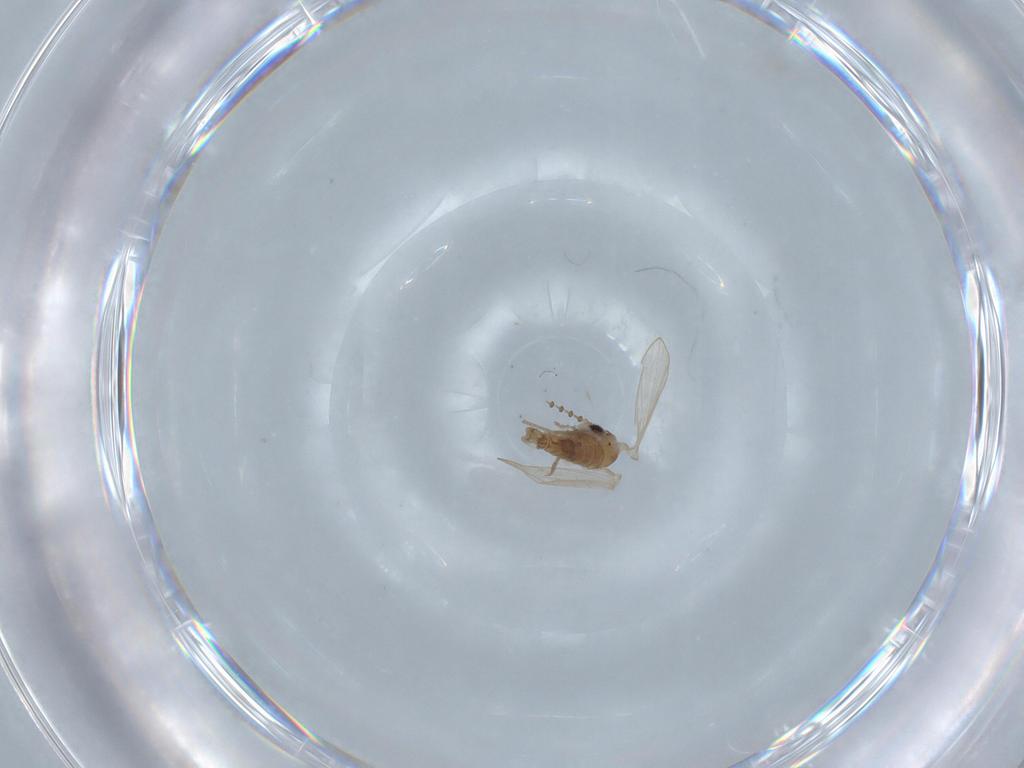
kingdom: Animalia
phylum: Arthropoda
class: Insecta
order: Diptera
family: Ceratopogonidae
